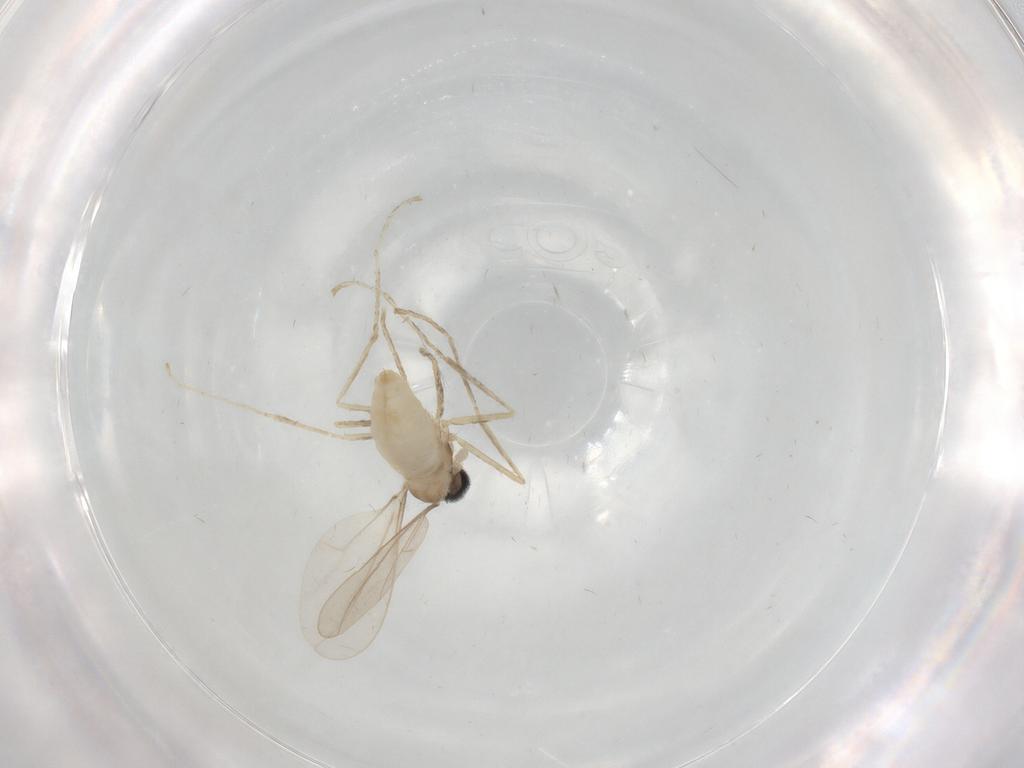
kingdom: Animalia
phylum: Arthropoda
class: Insecta
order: Diptera
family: Cecidomyiidae
